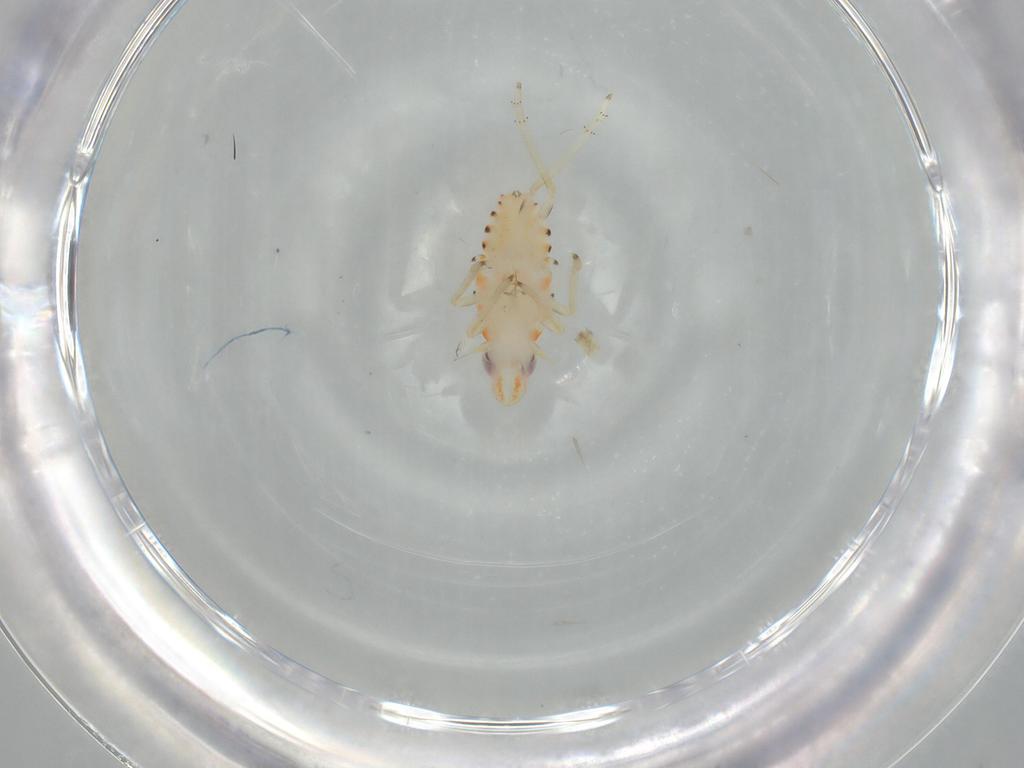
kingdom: Animalia
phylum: Arthropoda
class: Insecta
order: Hemiptera
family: Tropiduchidae
